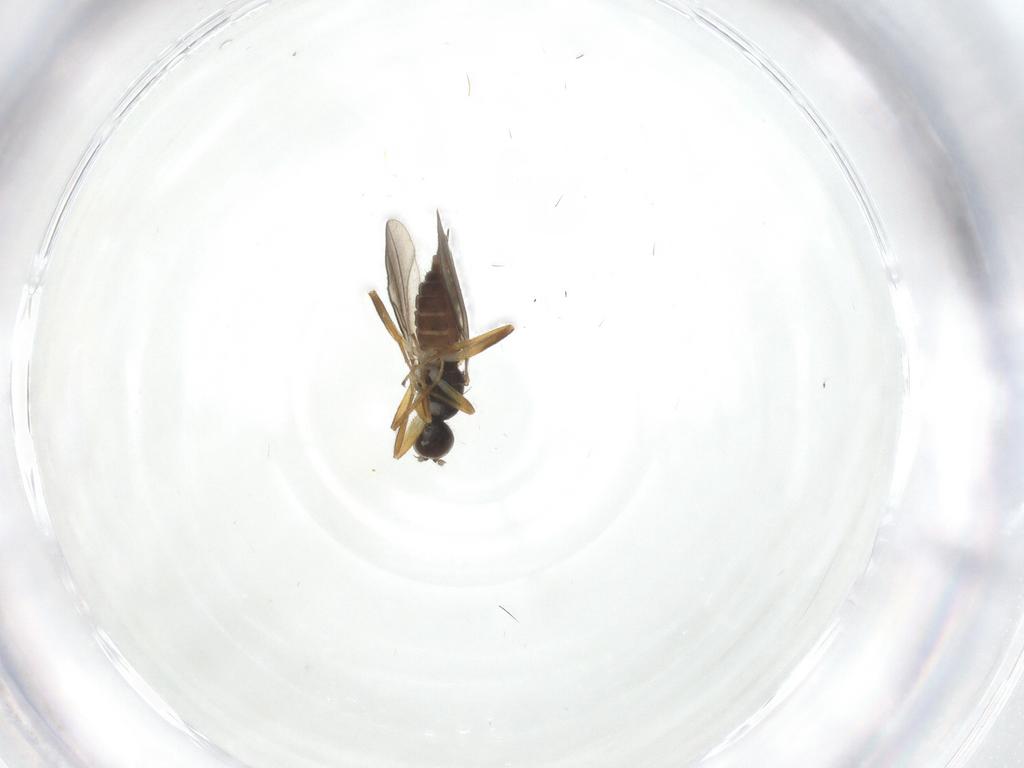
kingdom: Animalia
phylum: Arthropoda
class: Insecta
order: Diptera
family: Hybotidae
